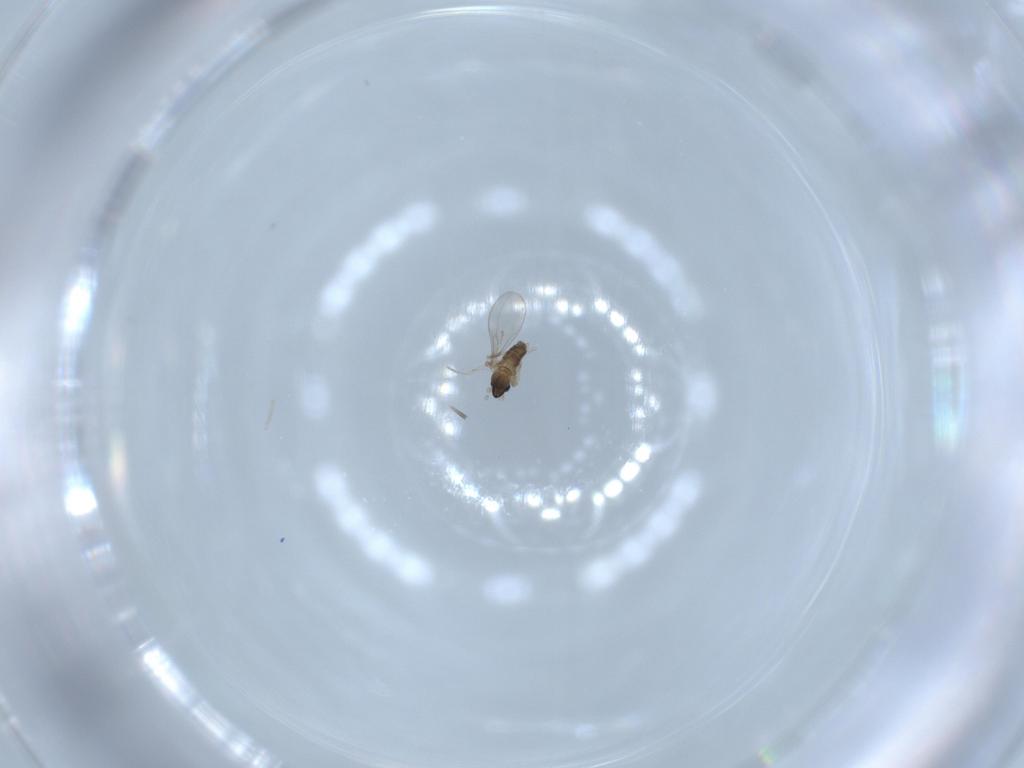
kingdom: Animalia
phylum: Arthropoda
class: Insecta
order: Diptera
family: Cecidomyiidae
